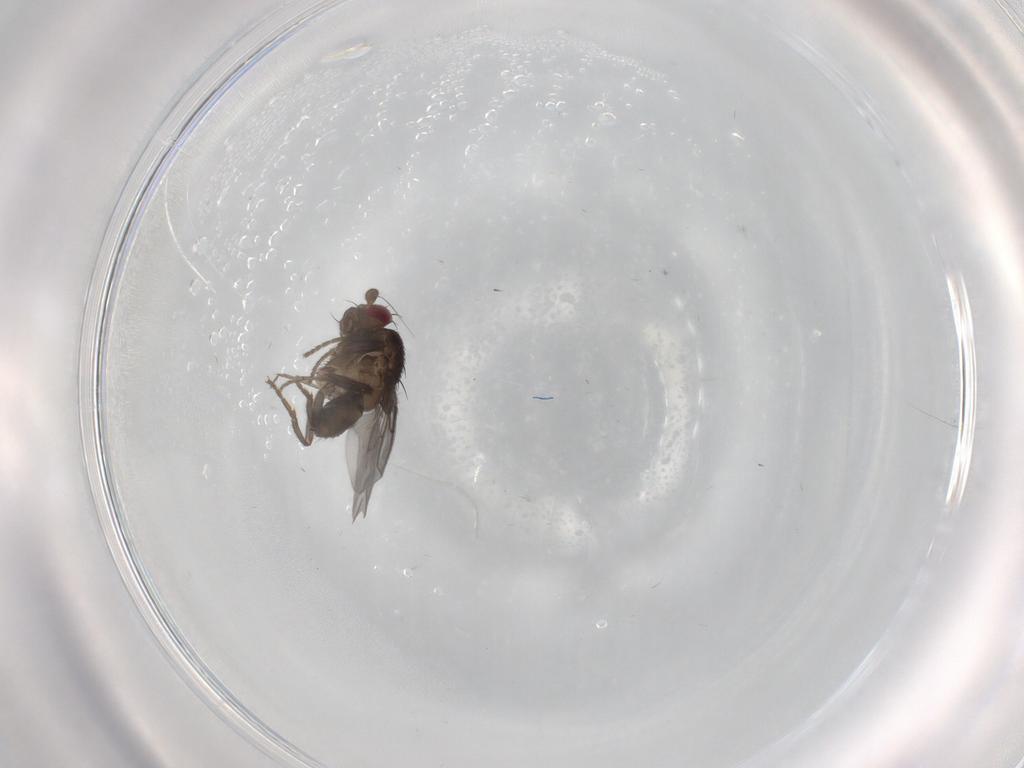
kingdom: Animalia
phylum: Arthropoda
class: Insecta
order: Diptera
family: Sphaeroceridae
